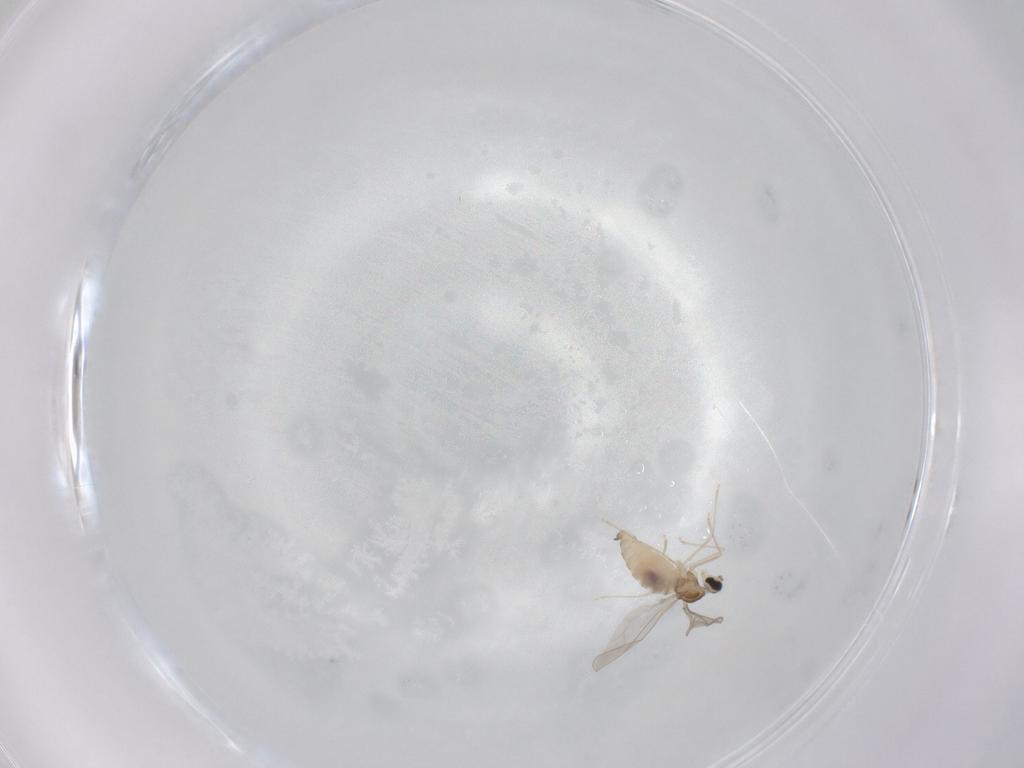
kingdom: Animalia
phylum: Arthropoda
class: Insecta
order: Diptera
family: Cecidomyiidae
